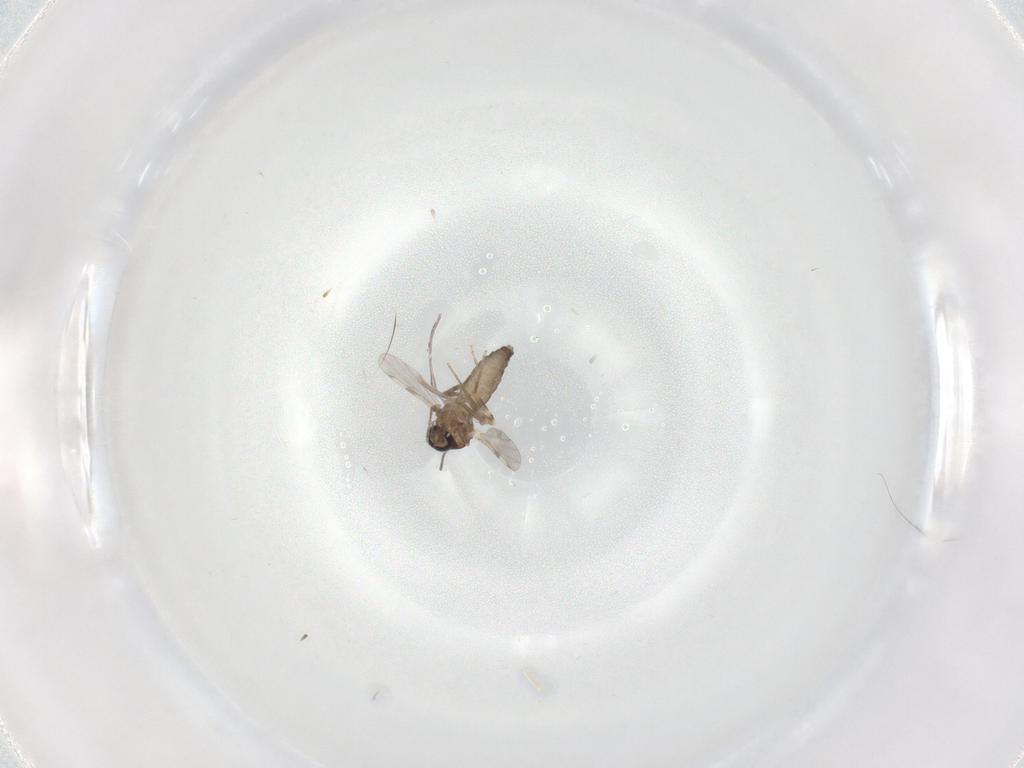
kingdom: Animalia
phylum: Arthropoda
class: Insecta
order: Diptera
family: Ceratopogonidae
